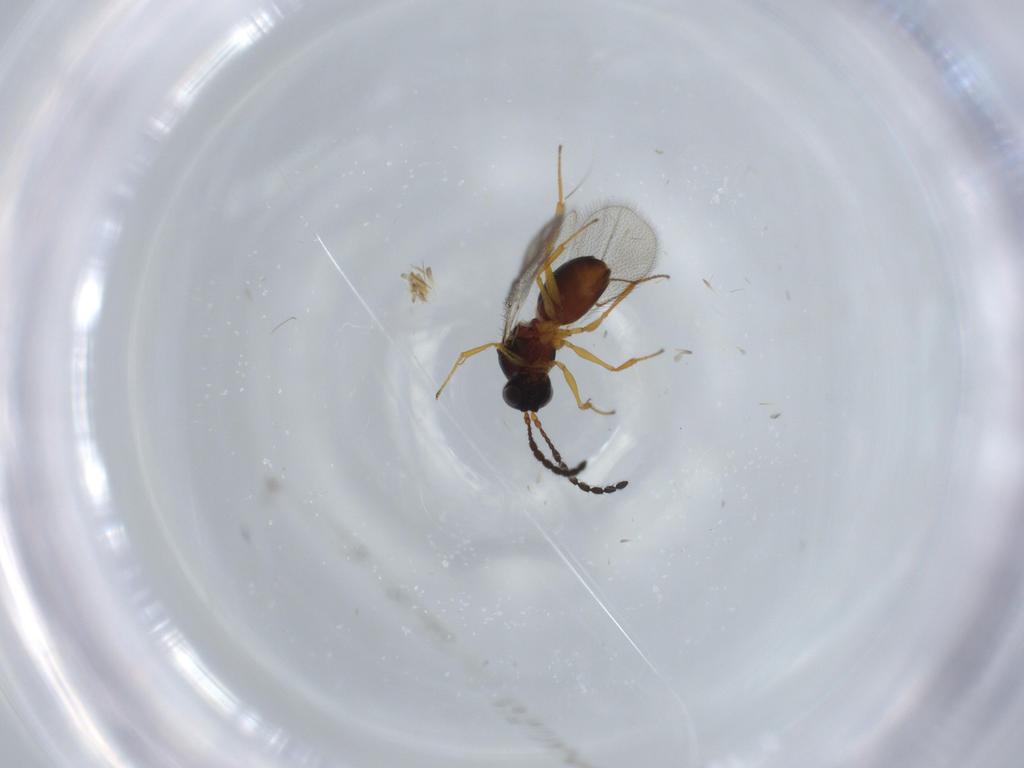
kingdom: Animalia
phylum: Arthropoda
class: Insecta
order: Hymenoptera
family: Figitidae
